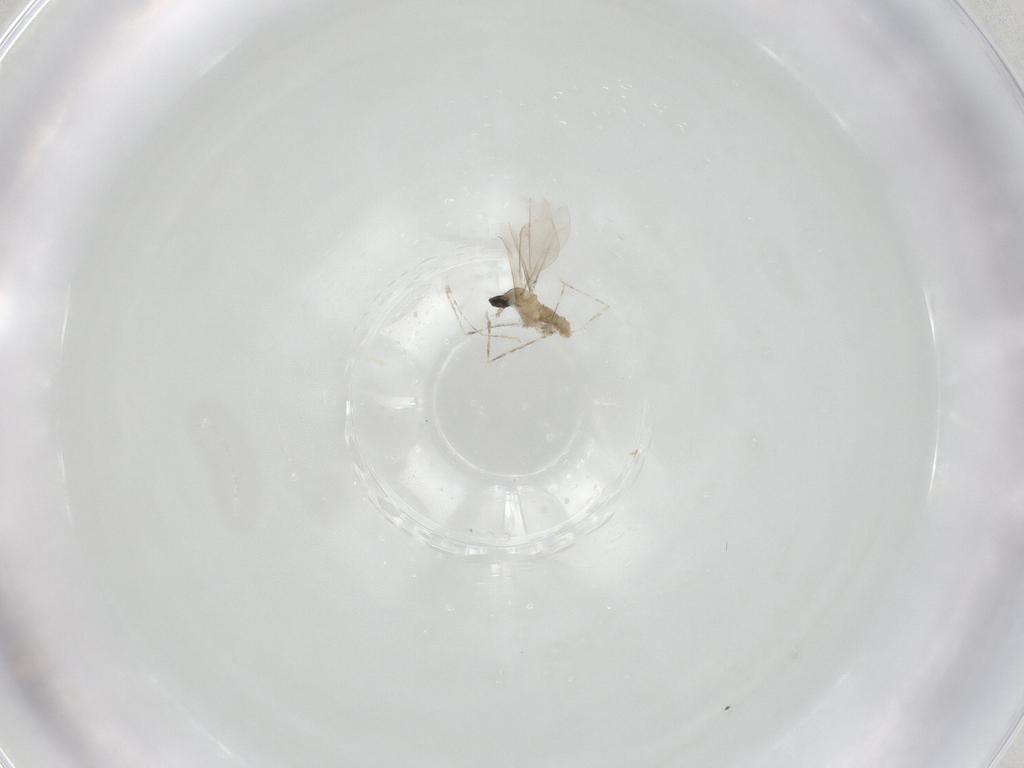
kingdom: Animalia
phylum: Arthropoda
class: Insecta
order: Diptera
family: Cecidomyiidae
